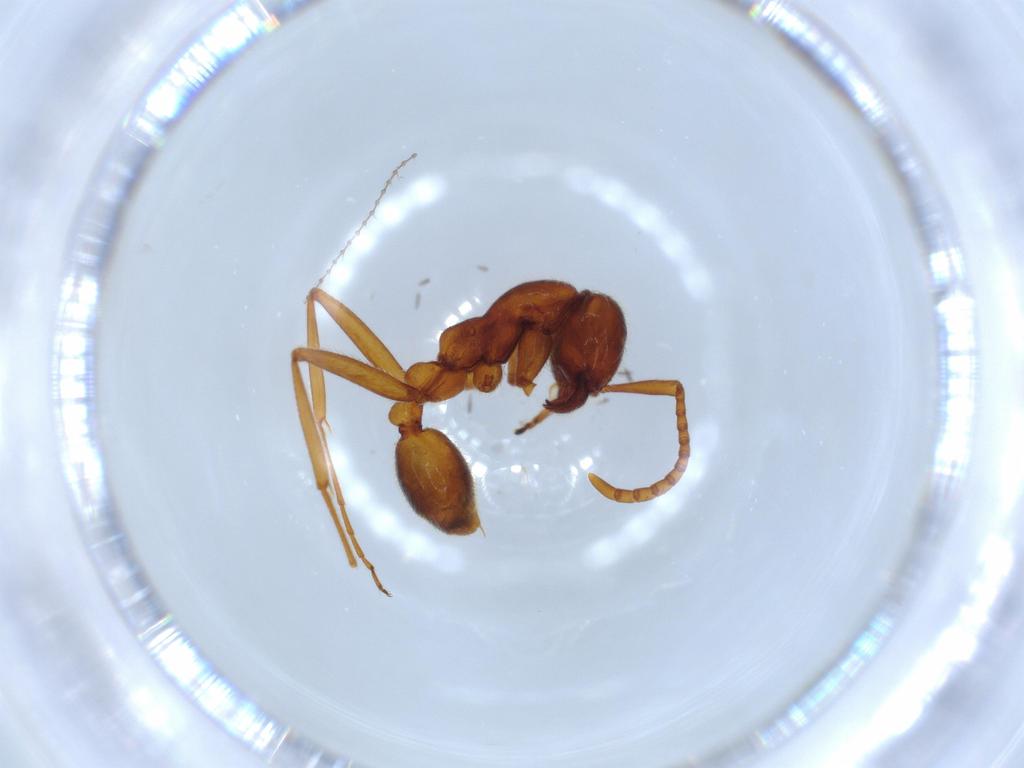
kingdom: Animalia
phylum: Arthropoda
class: Insecta
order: Hymenoptera
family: Formicidae
